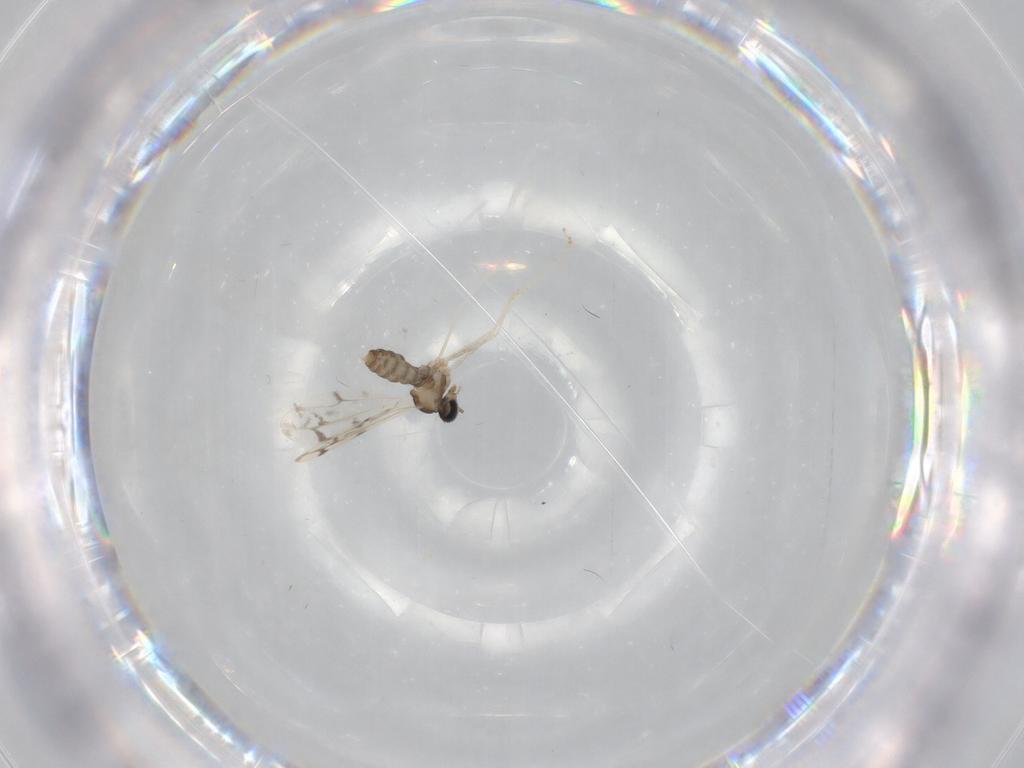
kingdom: Animalia
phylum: Arthropoda
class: Insecta
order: Diptera
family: Cecidomyiidae
